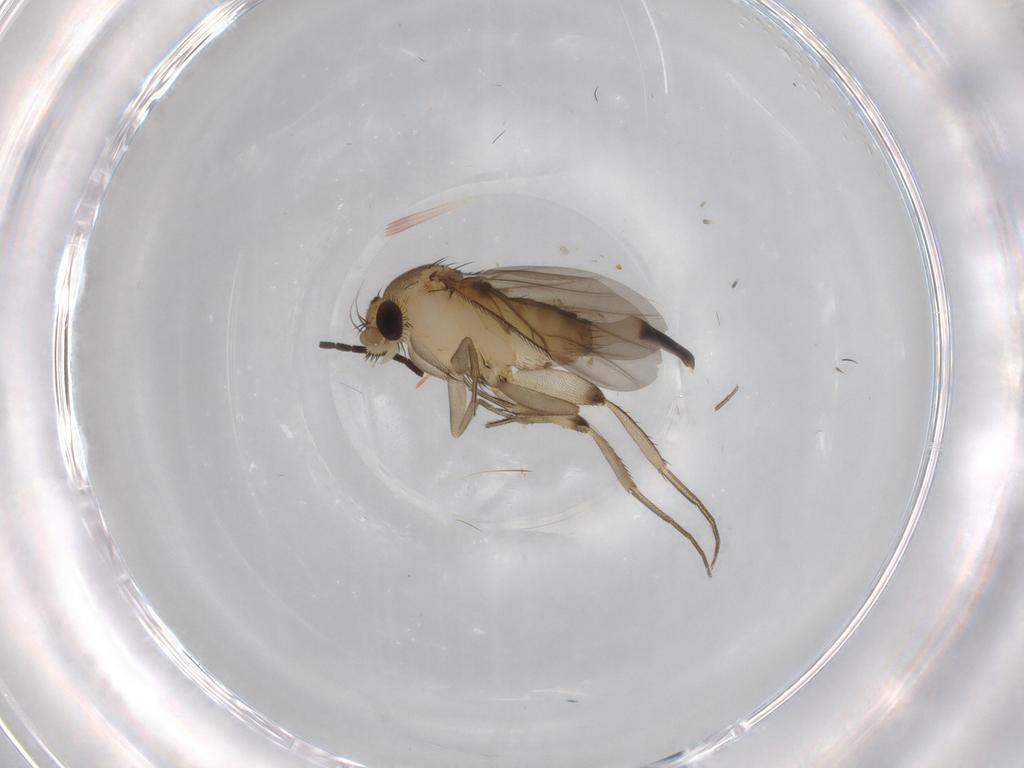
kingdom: Animalia
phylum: Arthropoda
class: Insecta
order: Diptera
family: Phoridae
